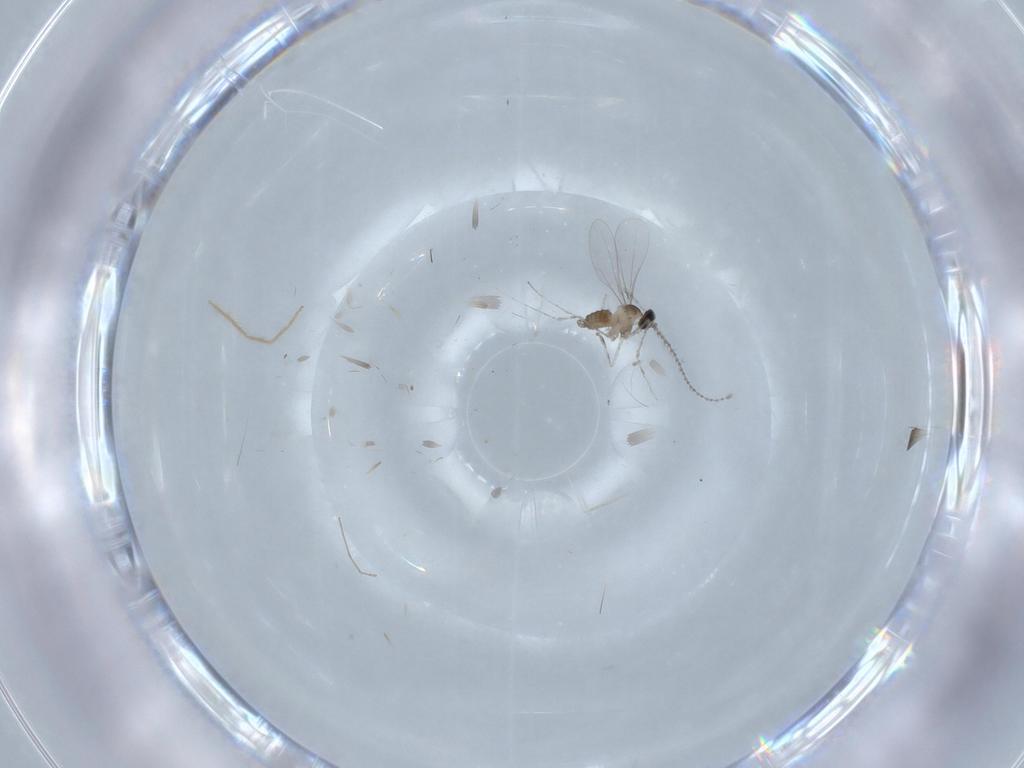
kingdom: Animalia
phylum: Arthropoda
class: Insecta
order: Diptera
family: Cecidomyiidae
